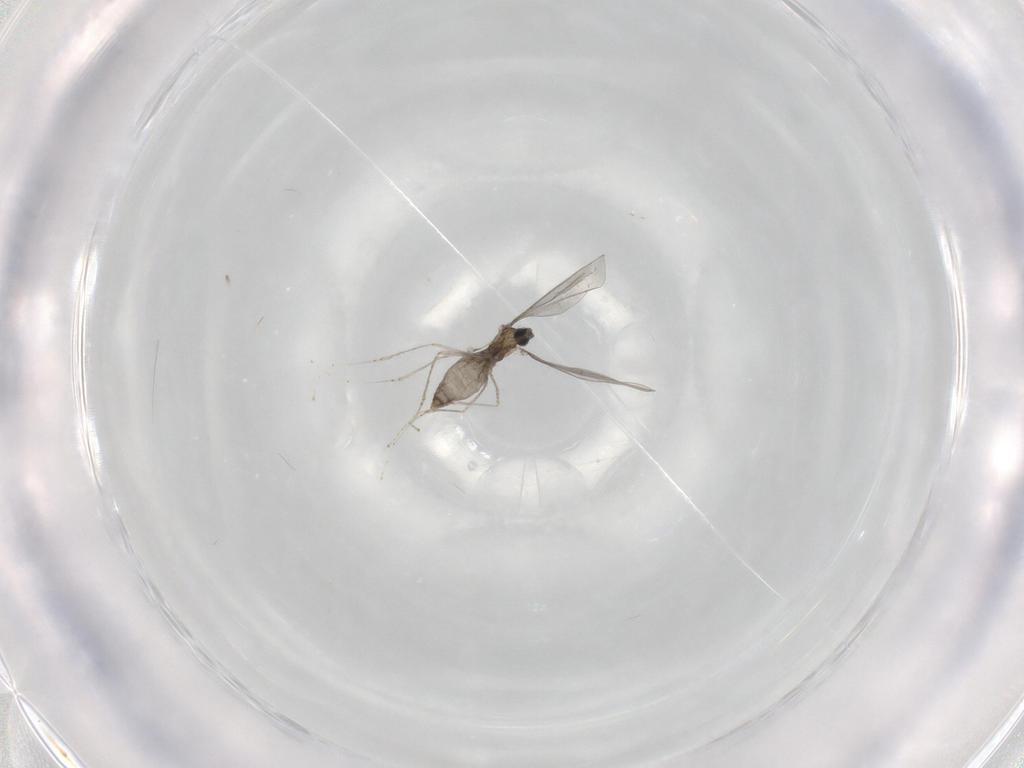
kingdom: Animalia
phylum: Arthropoda
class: Insecta
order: Diptera
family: Cecidomyiidae
